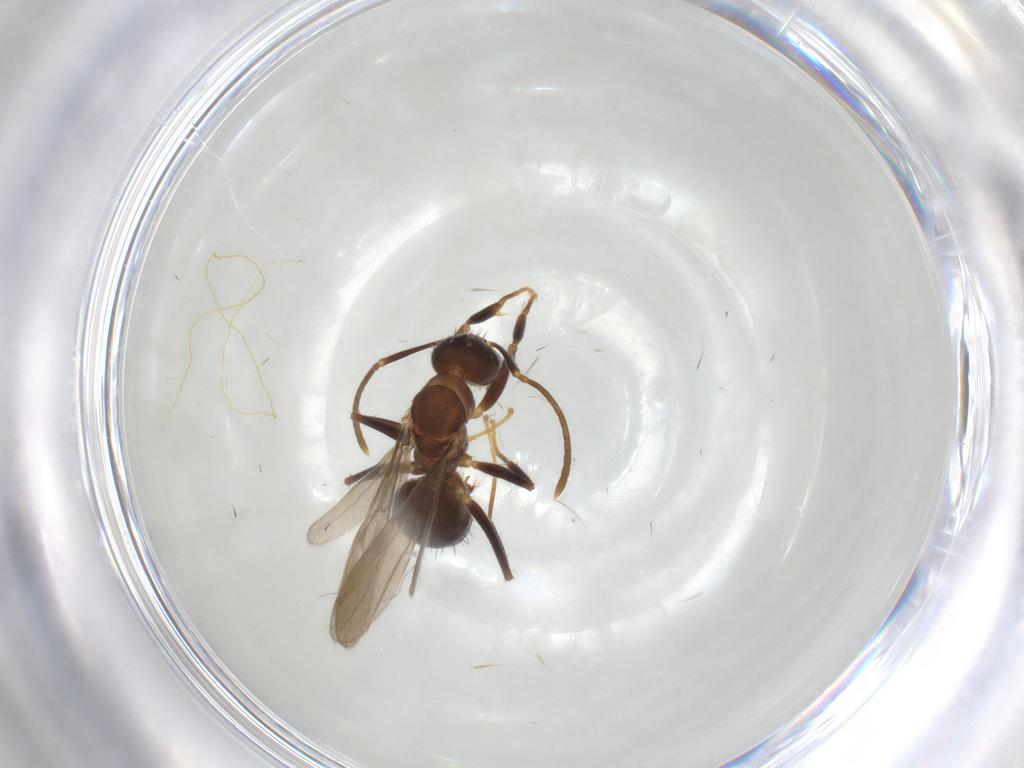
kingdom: Animalia
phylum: Arthropoda
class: Insecta
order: Hymenoptera
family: Formicidae
